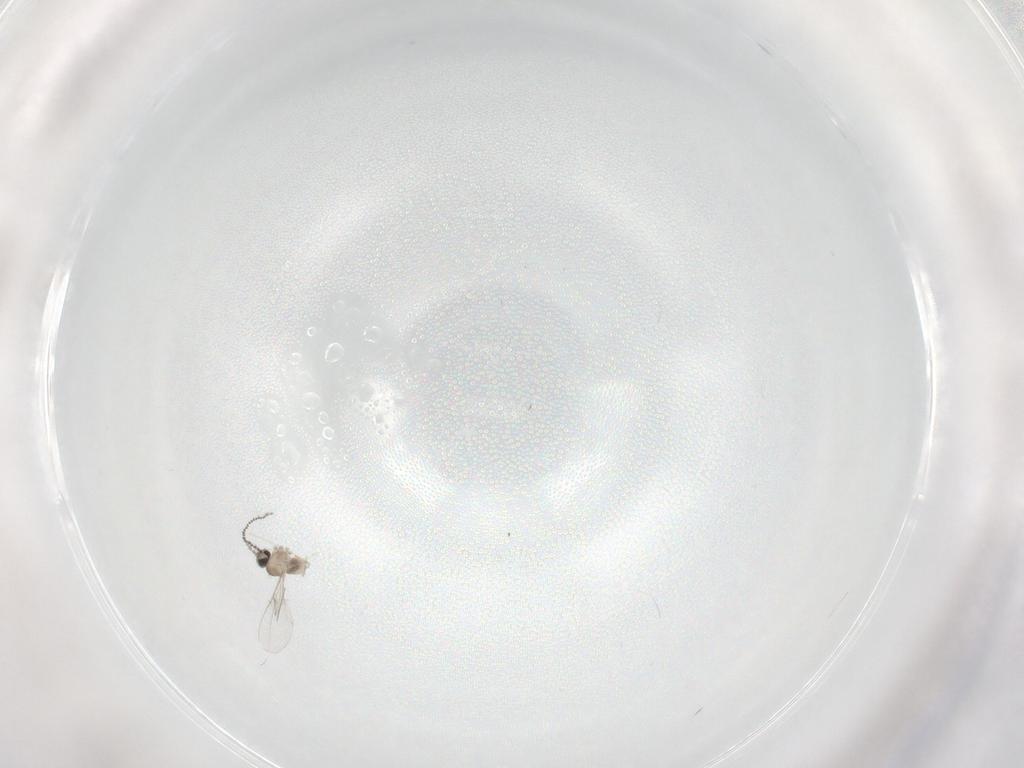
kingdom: Animalia
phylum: Arthropoda
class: Insecta
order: Diptera
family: Cecidomyiidae
